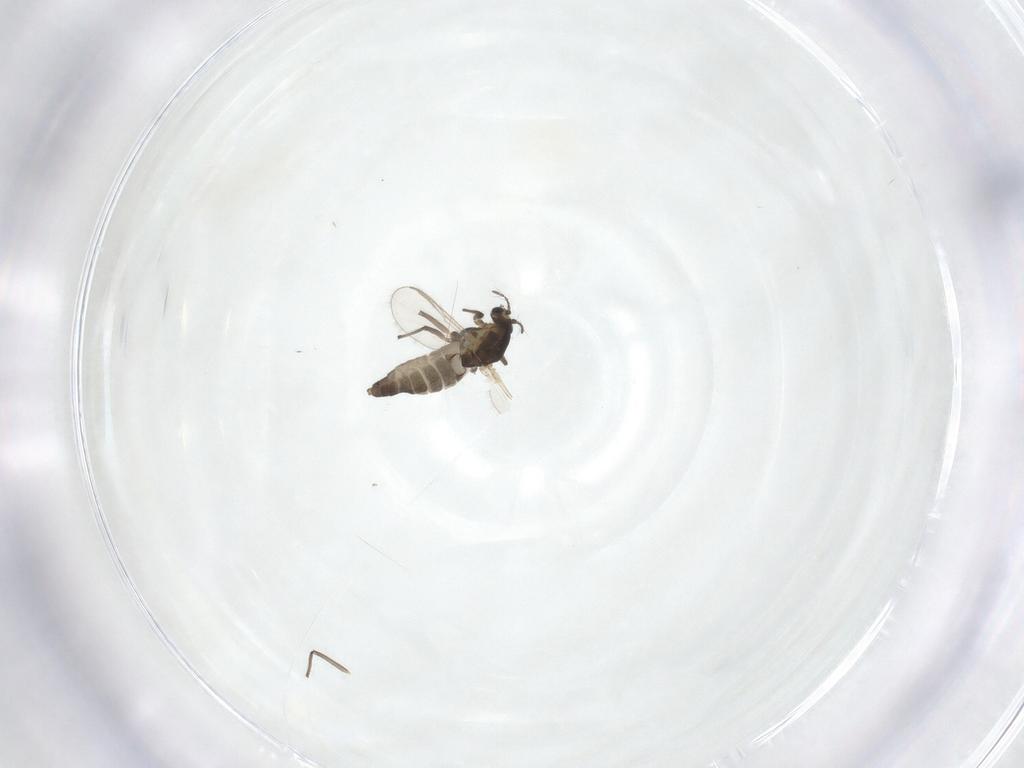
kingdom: Animalia
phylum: Arthropoda
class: Insecta
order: Diptera
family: Chironomidae
